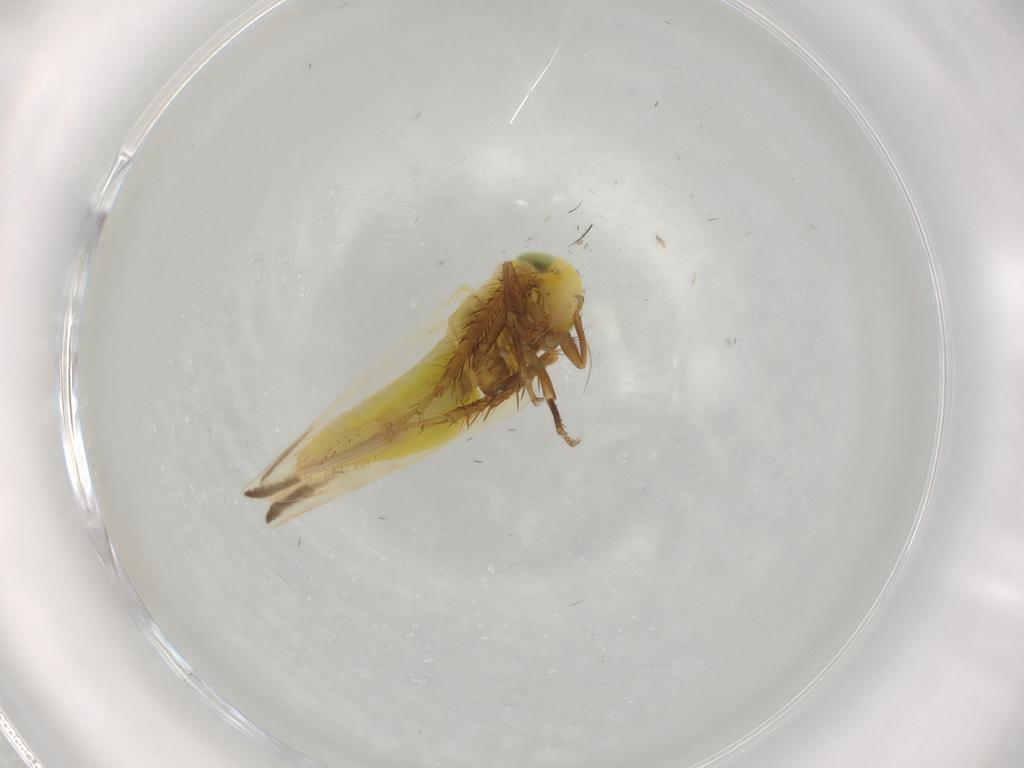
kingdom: Animalia
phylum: Arthropoda
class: Insecta
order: Hemiptera
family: Cicadellidae
